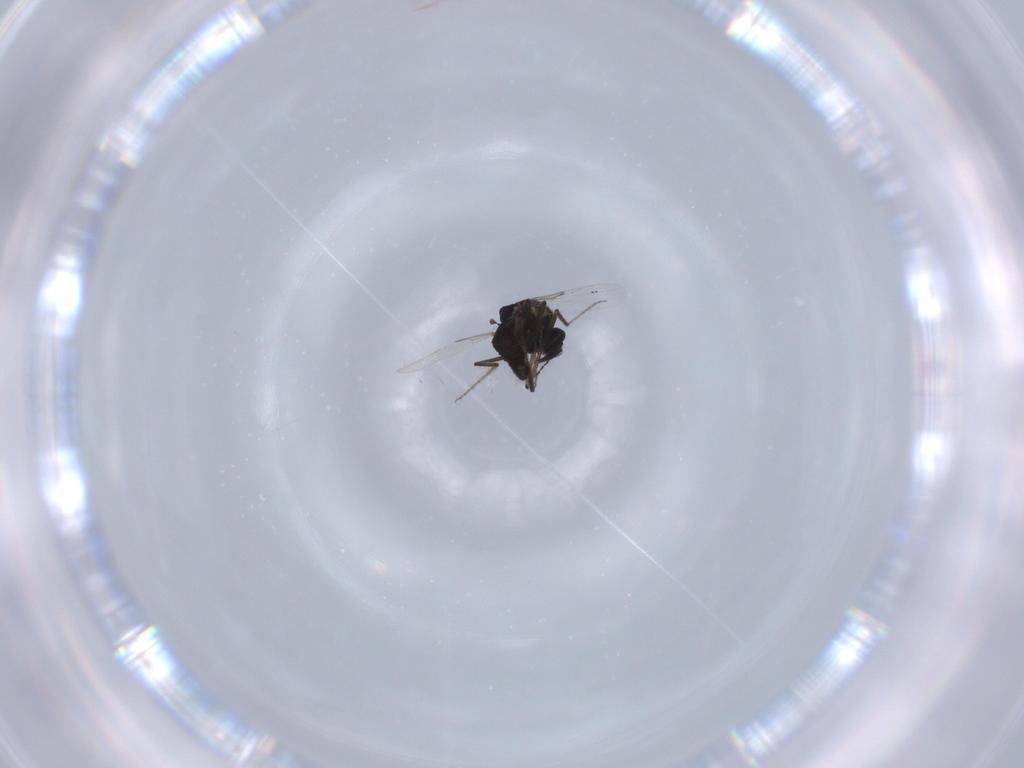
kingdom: Animalia
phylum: Arthropoda
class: Insecta
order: Diptera
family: Ceratopogonidae
